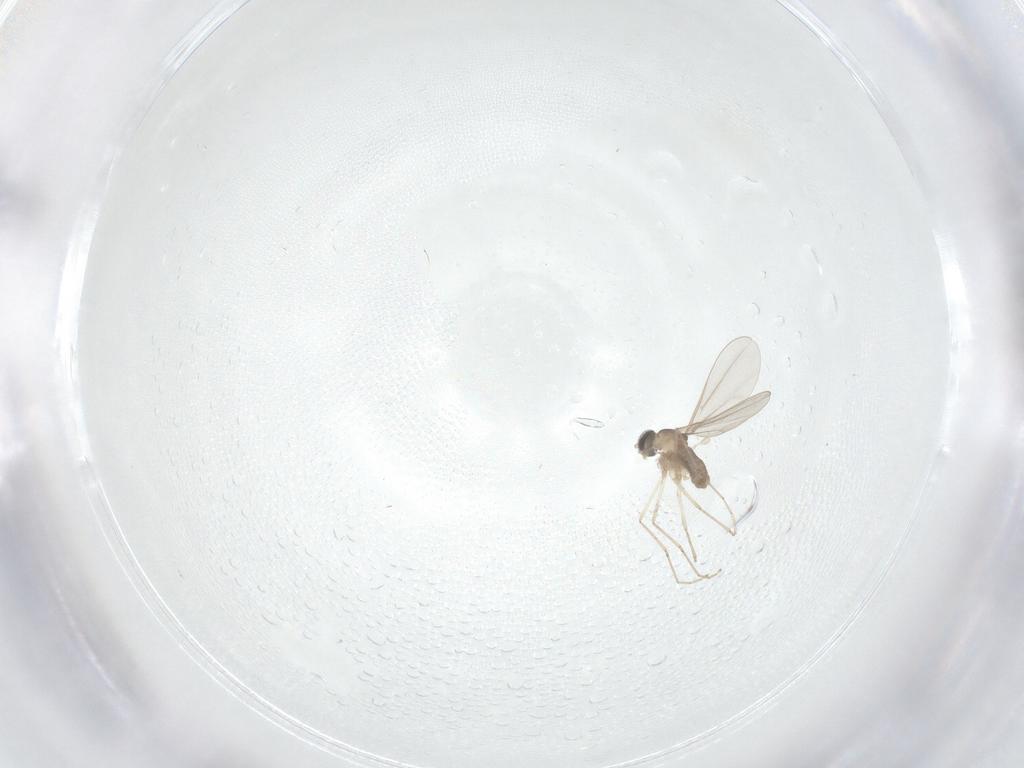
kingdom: Animalia
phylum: Arthropoda
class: Insecta
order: Diptera
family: Cecidomyiidae
